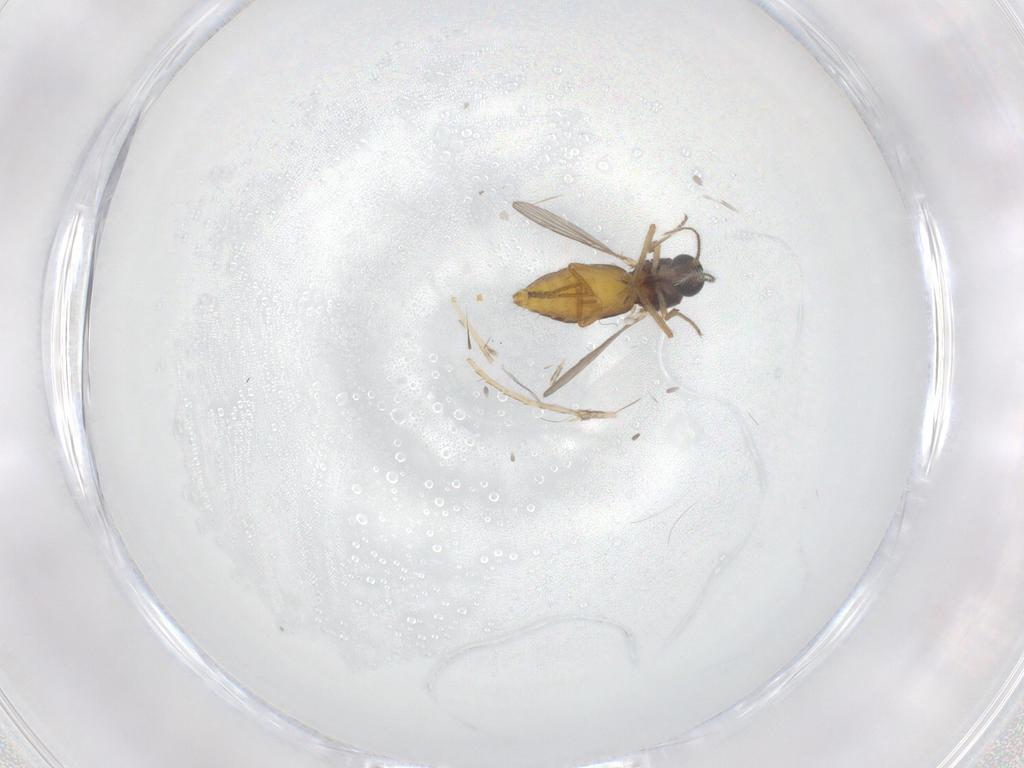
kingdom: Animalia
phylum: Arthropoda
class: Insecta
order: Diptera
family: Ceratopogonidae
